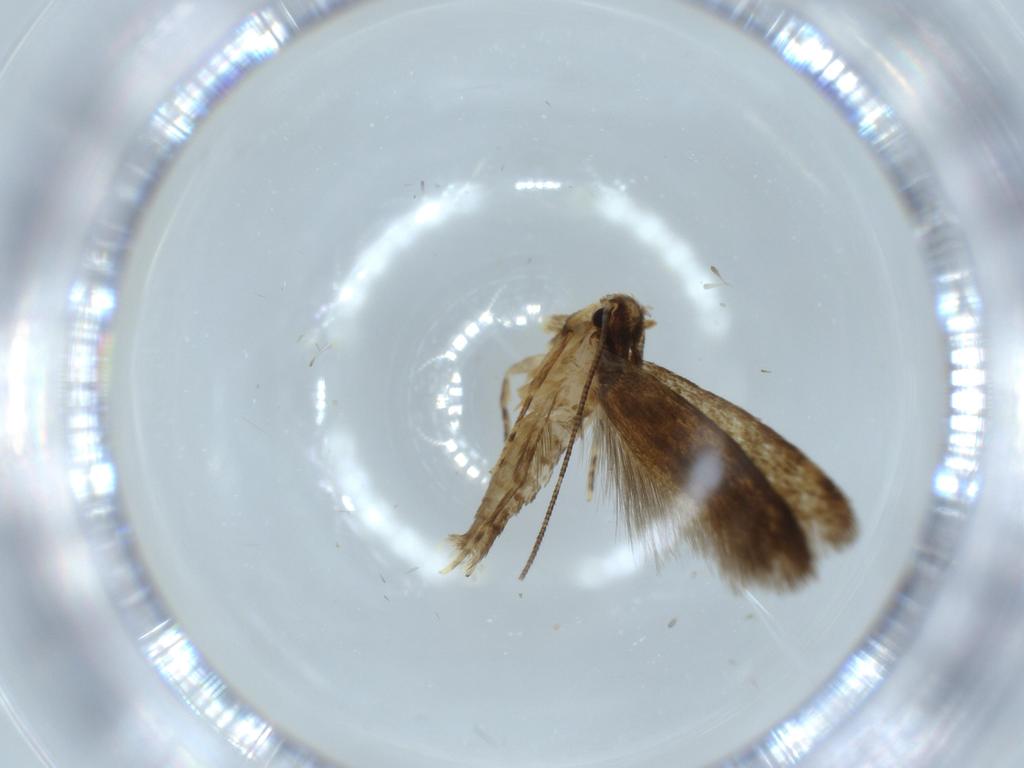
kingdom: Animalia
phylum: Arthropoda
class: Insecta
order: Lepidoptera
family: Tineidae
